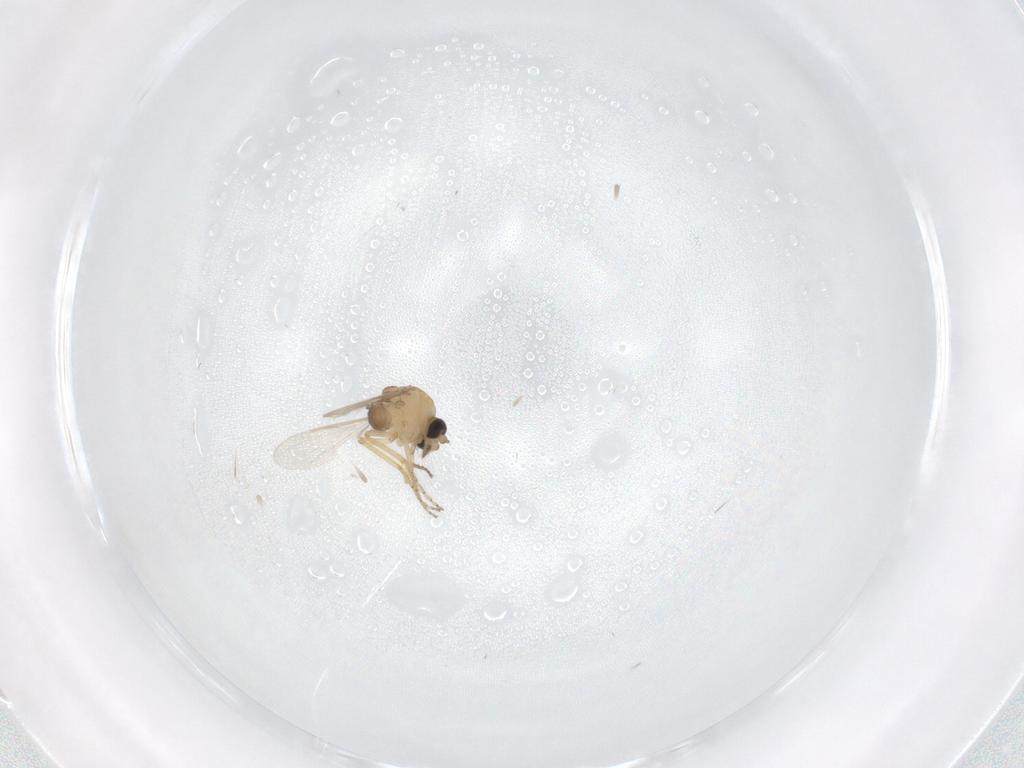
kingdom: Animalia
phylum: Arthropoda
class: Insecta
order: Diptera
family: Ceratopogonidae
